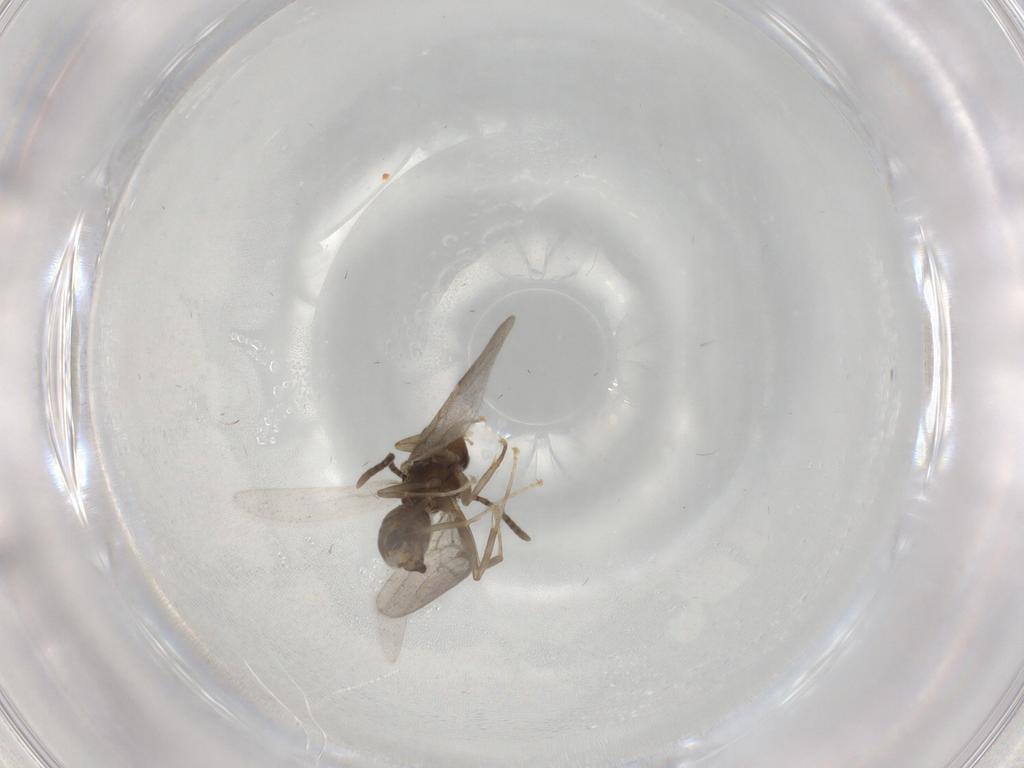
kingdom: Animalia
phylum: Arthropoda
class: Insecta
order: Hymenoptera
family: Formicidae
